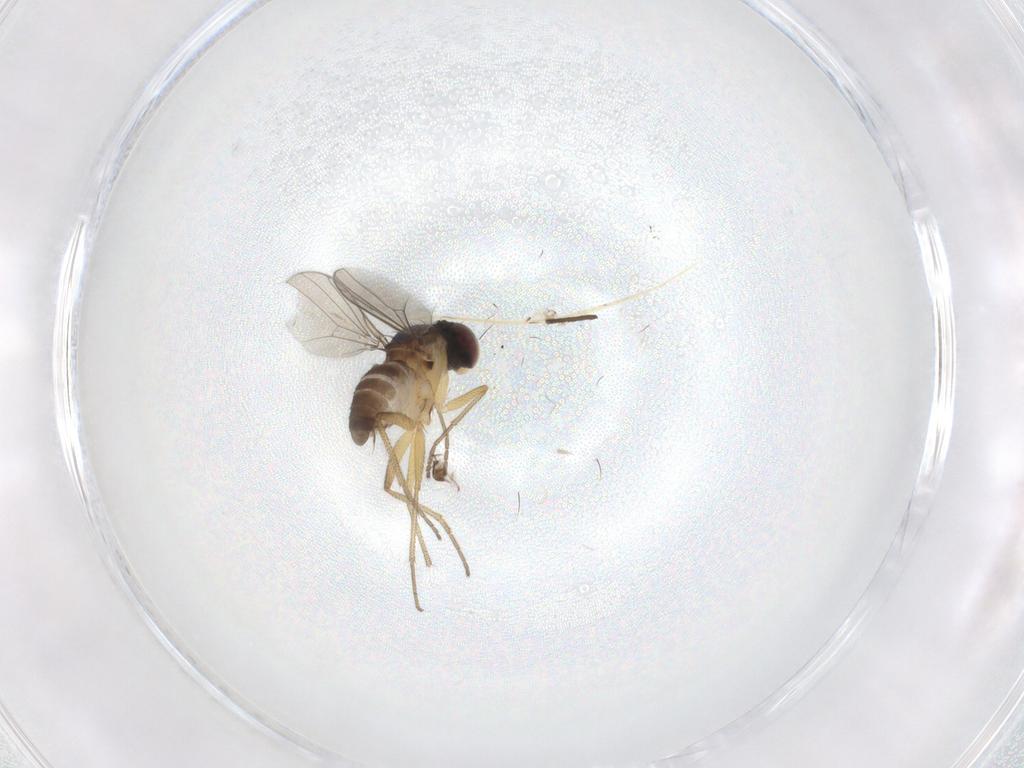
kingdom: Animalia
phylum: Arthropoda
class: Insecta
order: Diptera
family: Dolichopodidae
